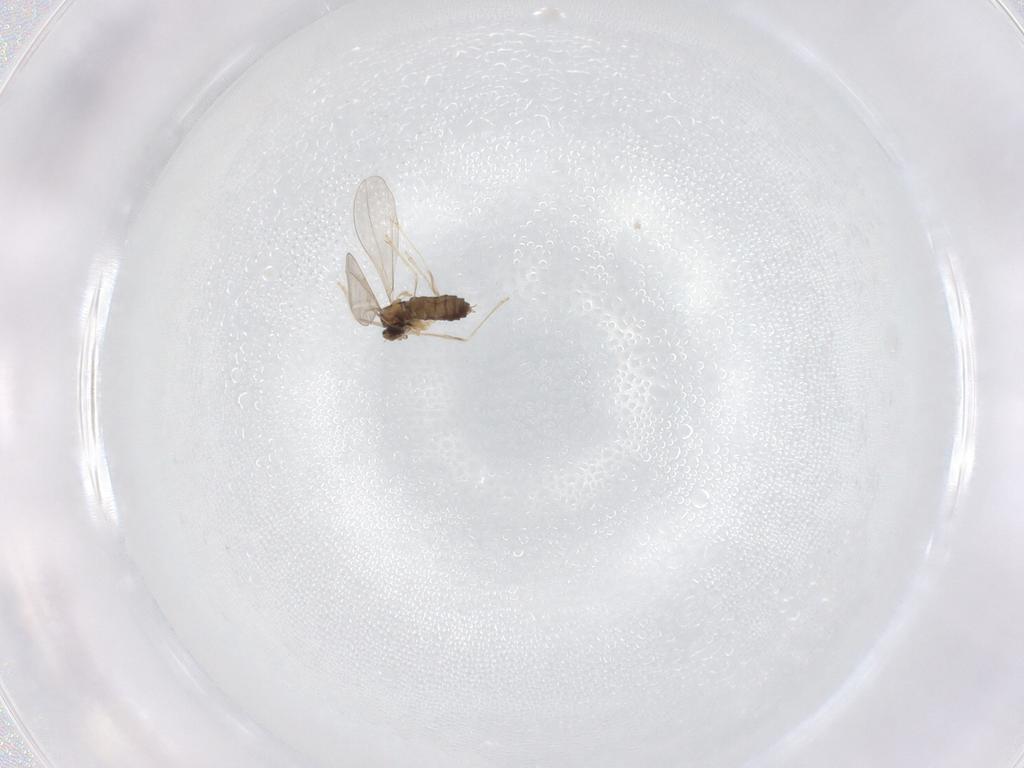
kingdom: Animalia
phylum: Arthropoda
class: Insecta
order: Diptera
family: Cecidomyiidae
